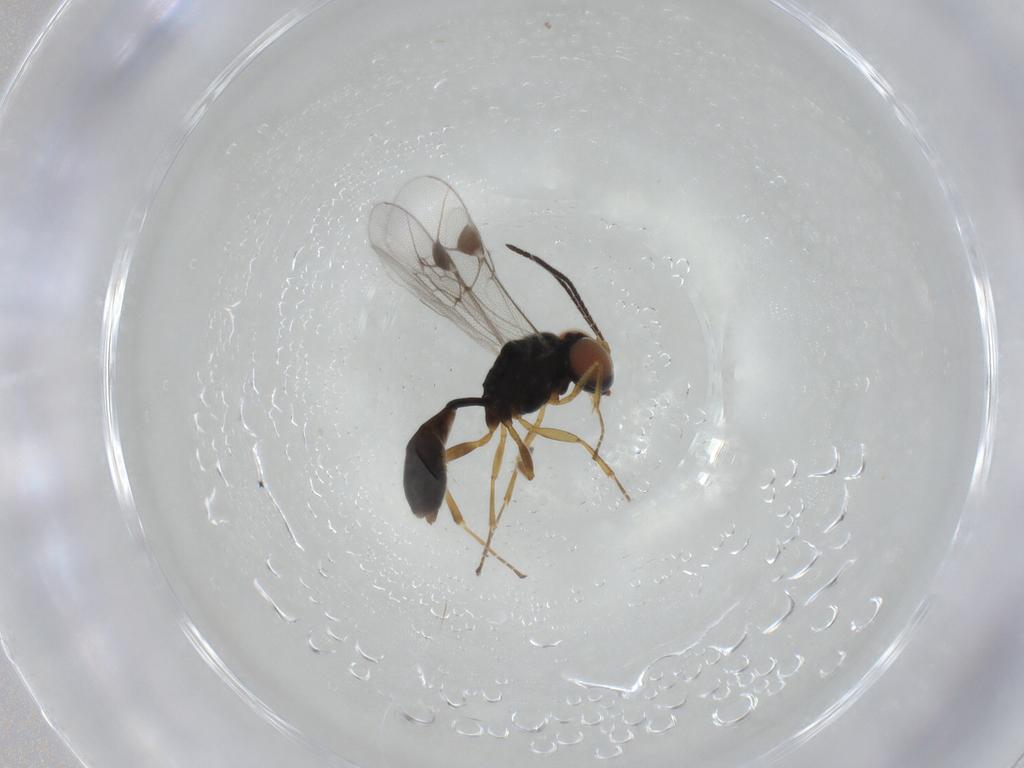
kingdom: Animalia
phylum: Arthropoda
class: Insecta
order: Hymenoptera
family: Ichneumonidae
